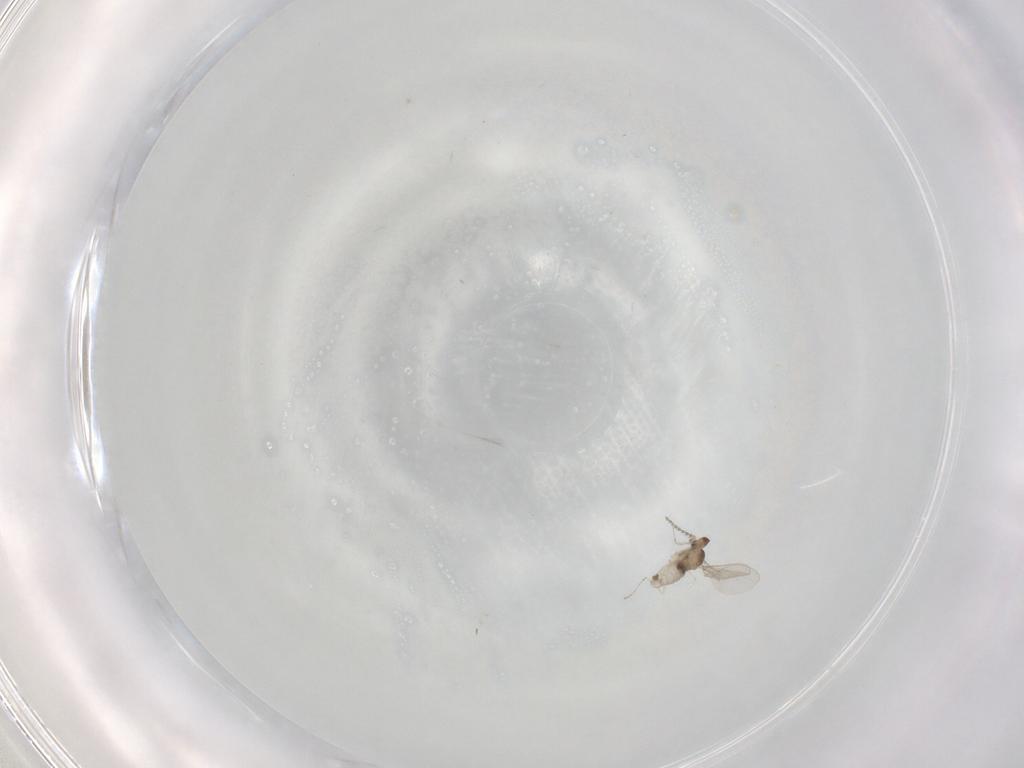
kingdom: Animalia
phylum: Arthropoda
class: Insecta
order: Diptera
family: Cecidomyiidae
